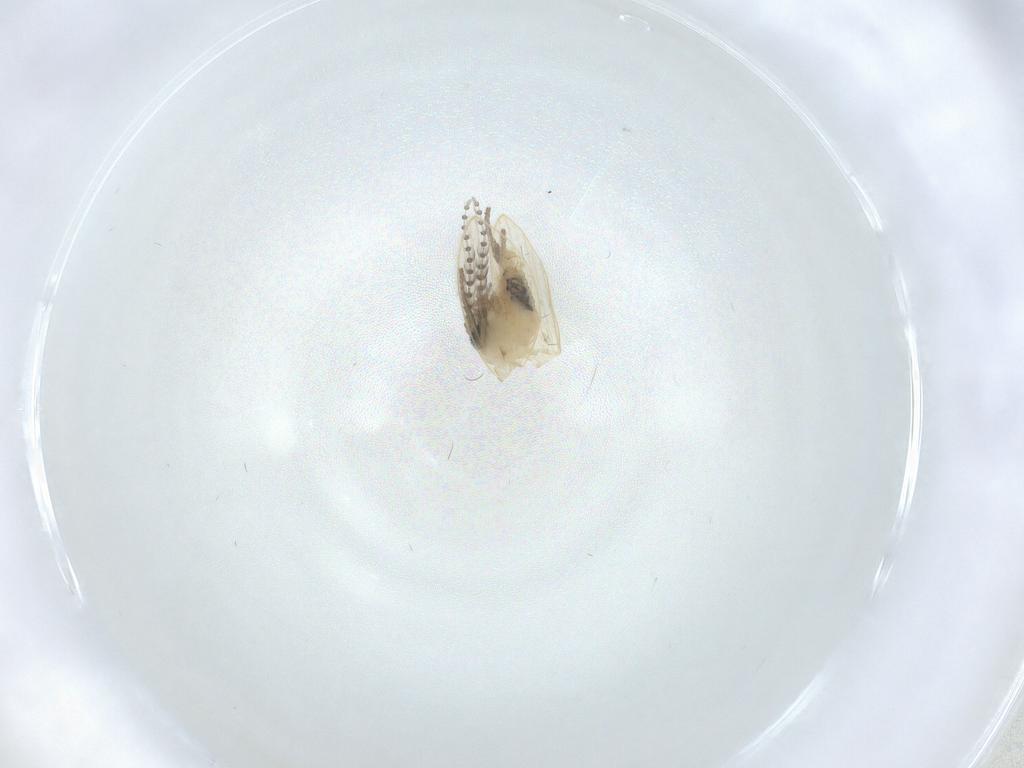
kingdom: Animalia
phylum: Arthropoda
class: Insecta
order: Diptera
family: Psychodidae
